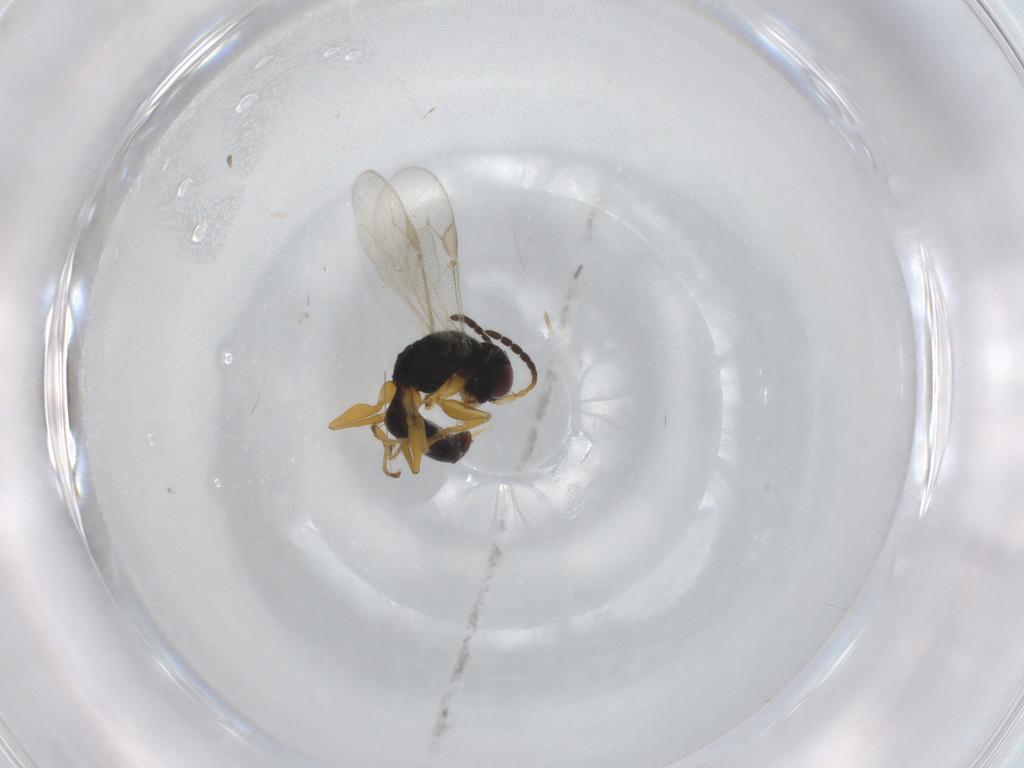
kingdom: Animalia
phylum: Arthropoda
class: Insecta
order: Hymenoptera
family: Dryinidae
